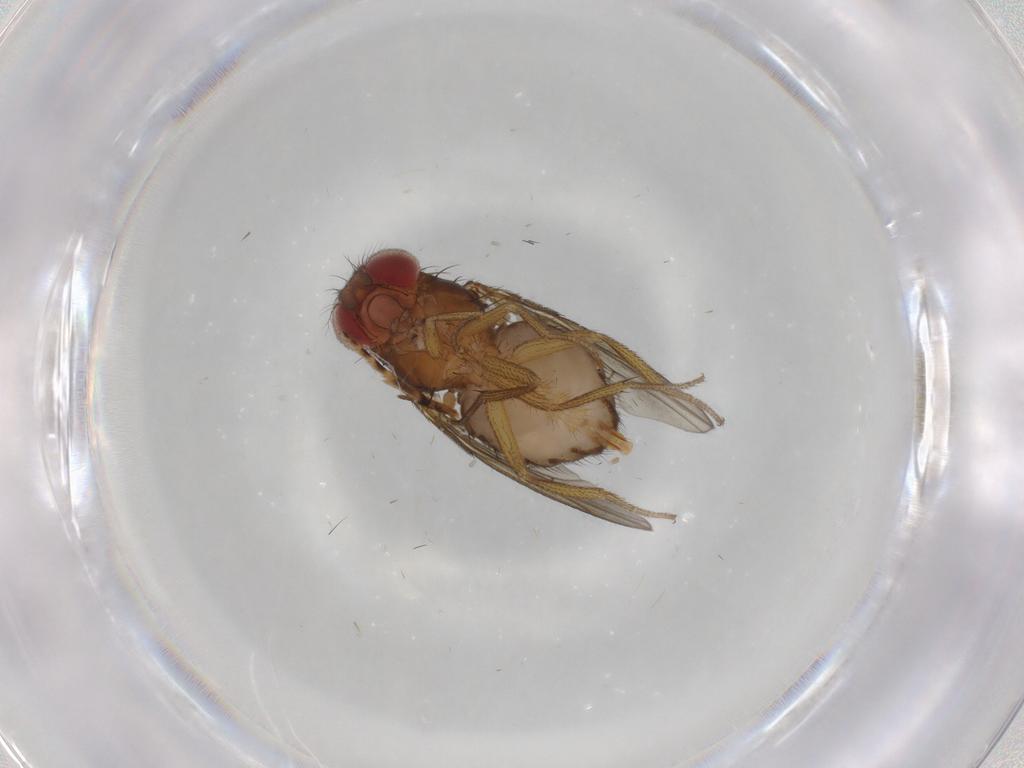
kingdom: Animalia
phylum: Arthropoda
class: Insecta
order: Diptera
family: Drosophilidae
